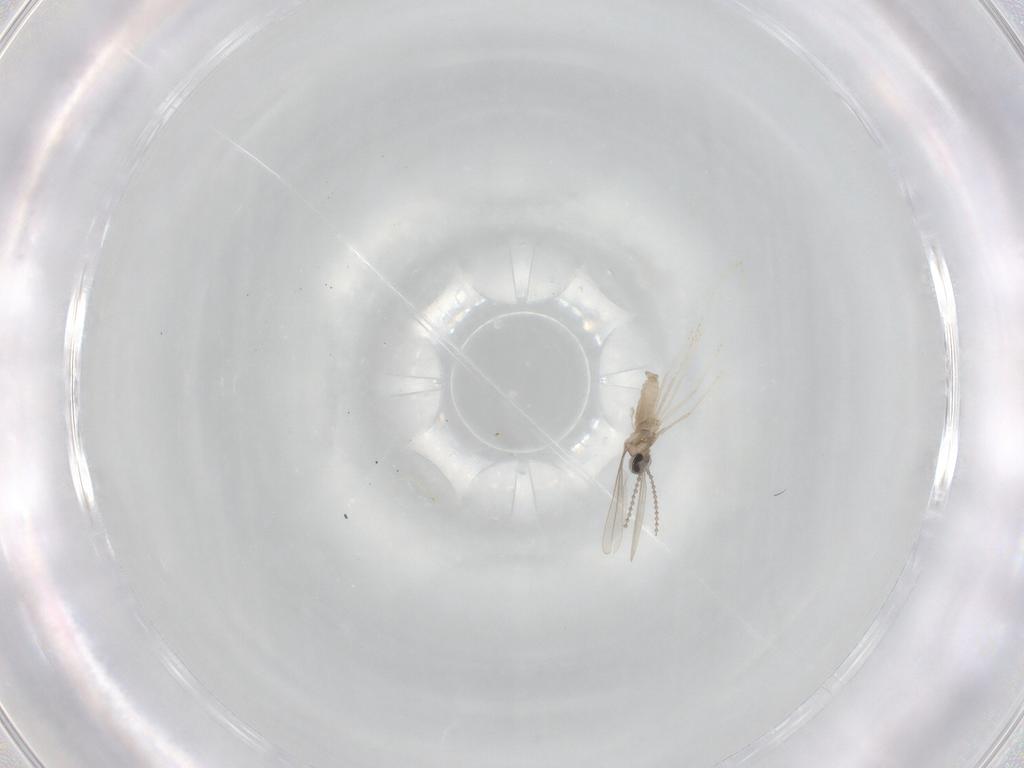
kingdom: Animalia
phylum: Arthropoda
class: Insecta
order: Diptera
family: Cecidomyiidae
